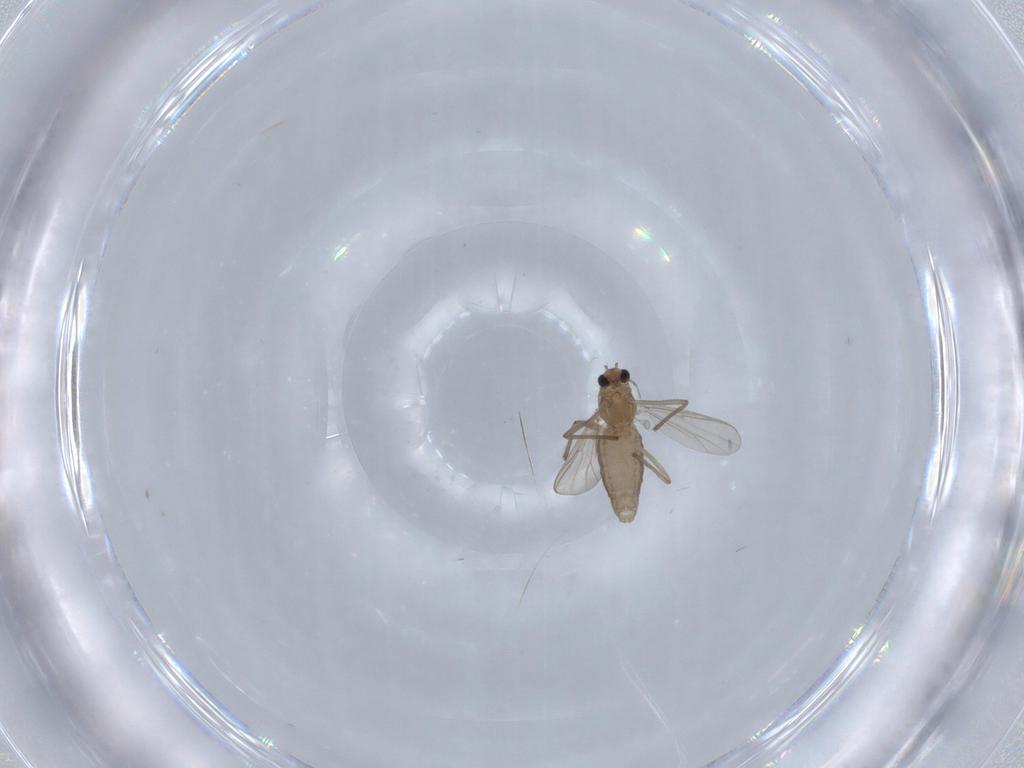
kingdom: Animalia
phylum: Arthropoda
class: Insecta
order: Diptera
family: Chironomidae
